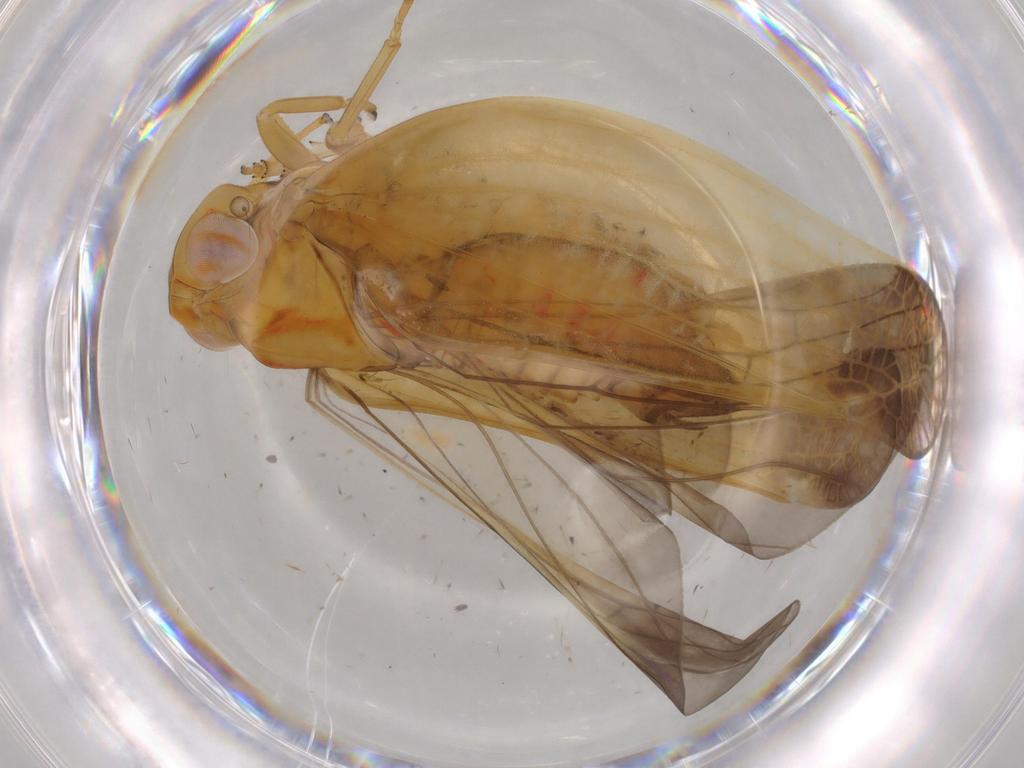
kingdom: Animalia
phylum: Arthropoda
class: Insecta
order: Hemiptera
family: Nogodinidae
